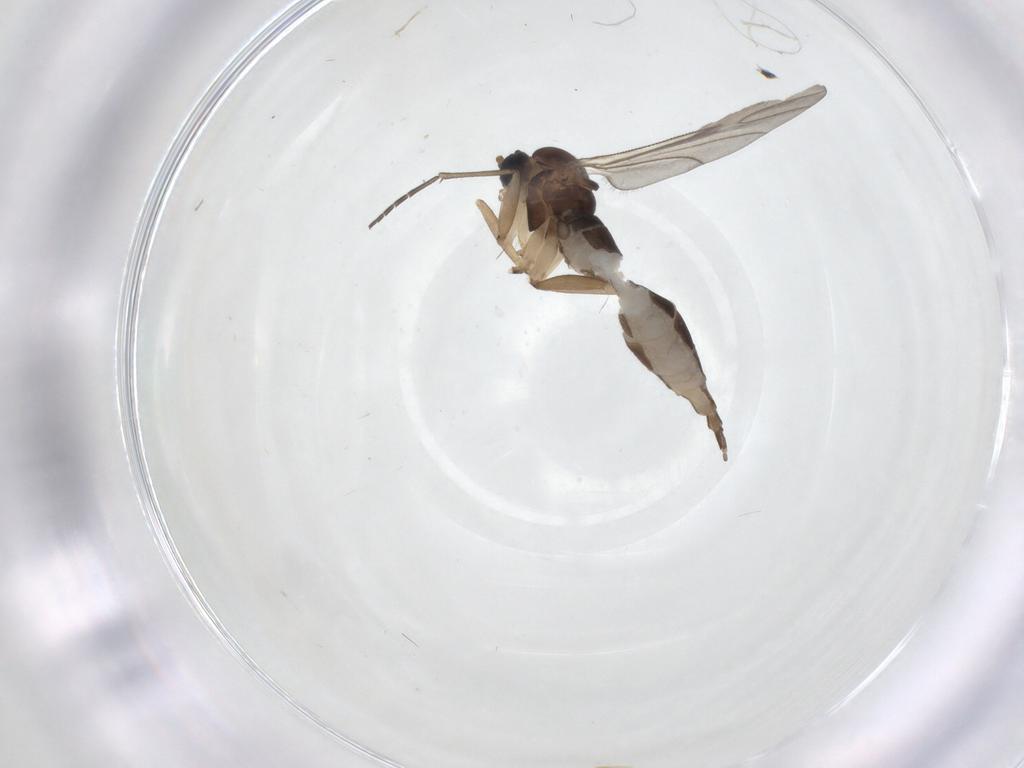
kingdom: Animalia
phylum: Arthropoda
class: Insecta
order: Diptera
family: Sciaridae
